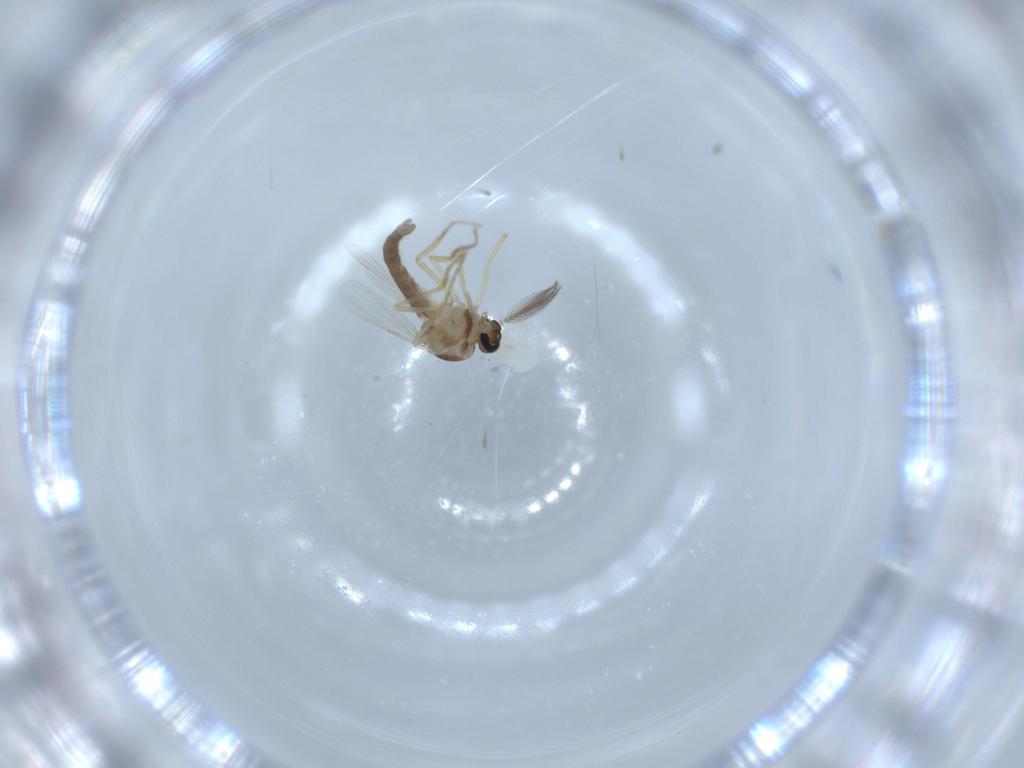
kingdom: Animalia
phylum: Arthropoda
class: Insecta
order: Diptera
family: Ceratopogonidae
